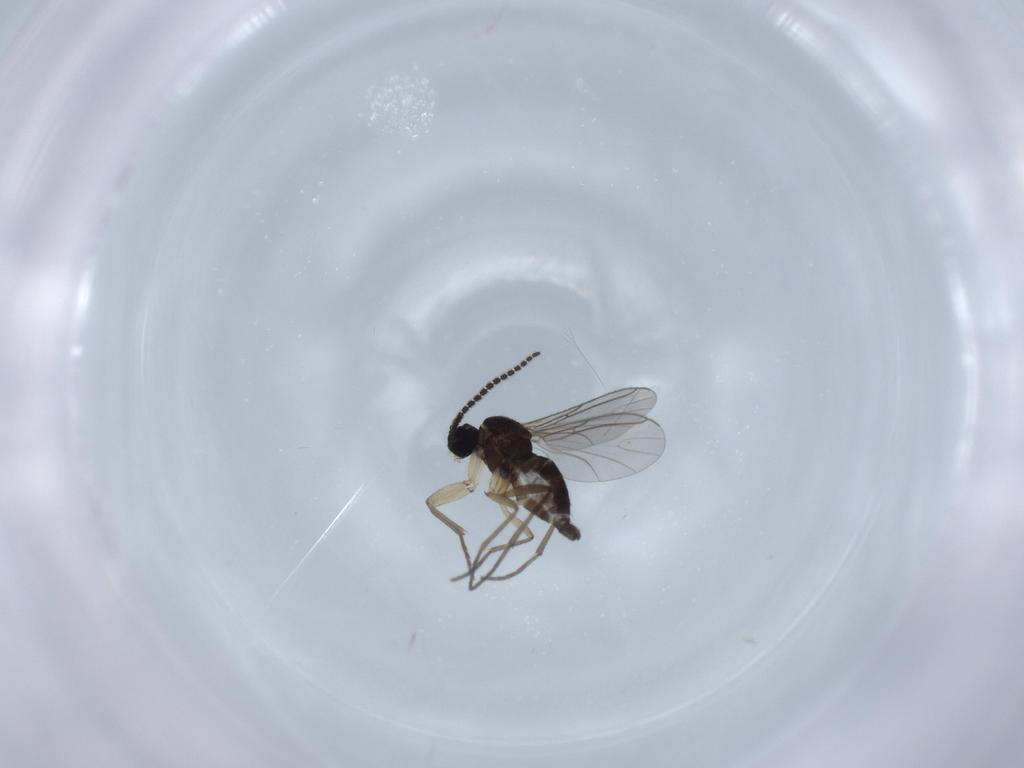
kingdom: Animalia
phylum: Arthropoda
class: Insecta
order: Diptera
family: Sciaridae
